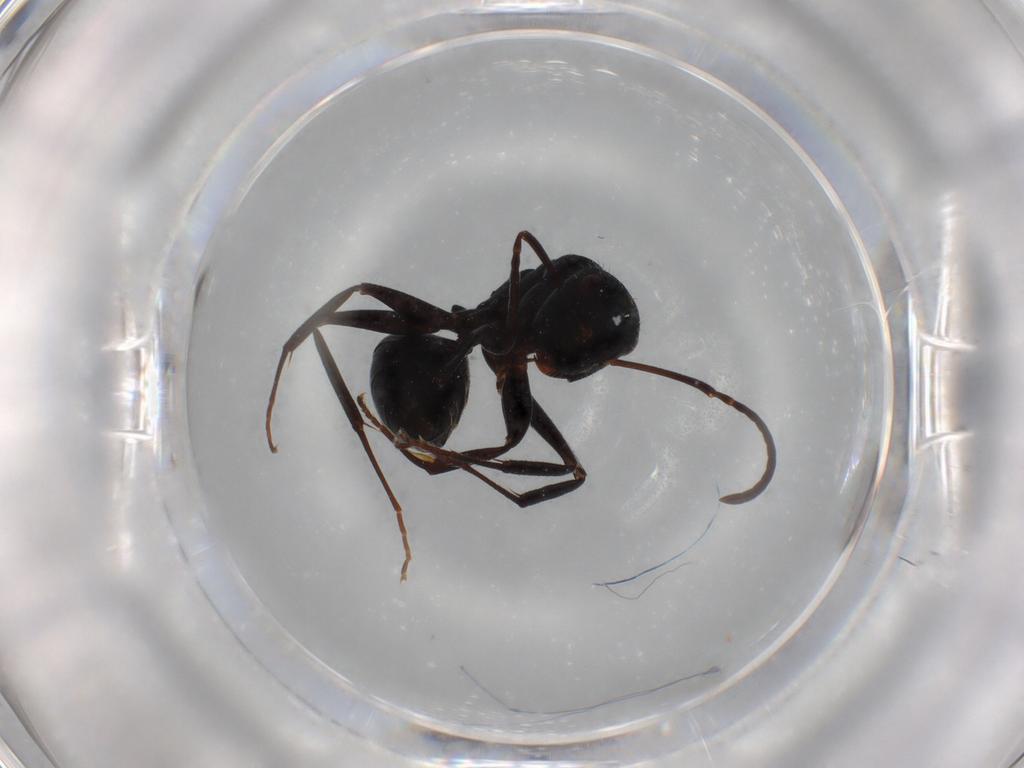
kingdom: Animalia
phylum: Arthropoda
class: Insecta
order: Hymenoptera
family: Formicidae
